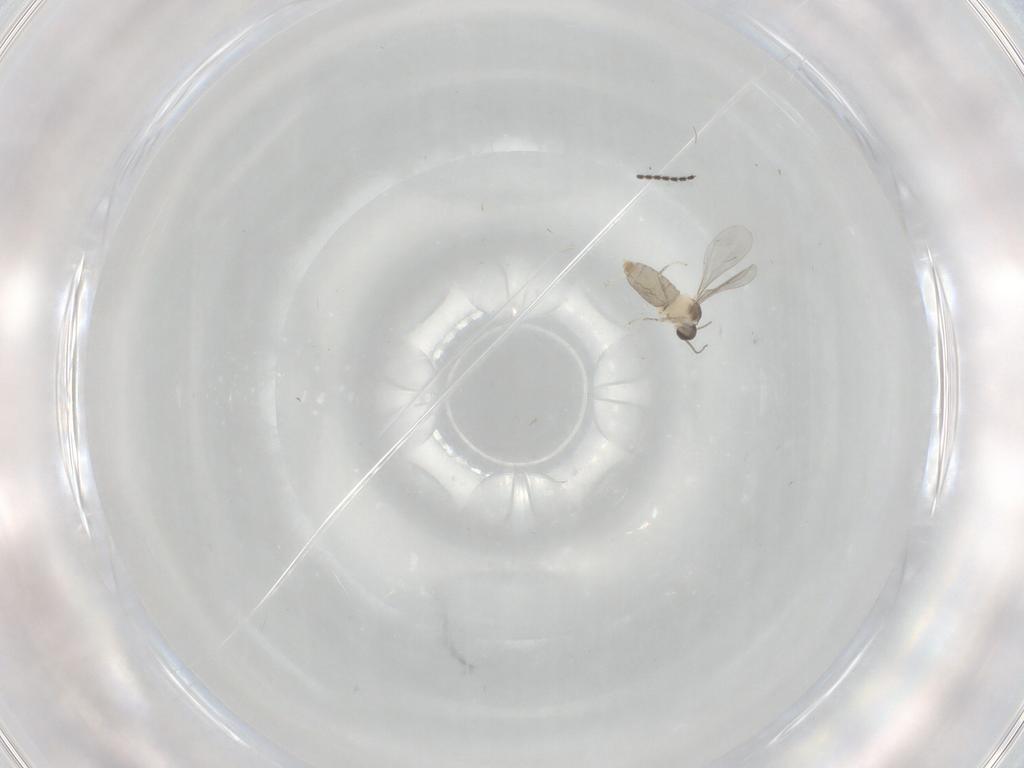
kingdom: Animalia
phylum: Arthropoda
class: Insecta
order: Diptera
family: Cecidomyiidae
